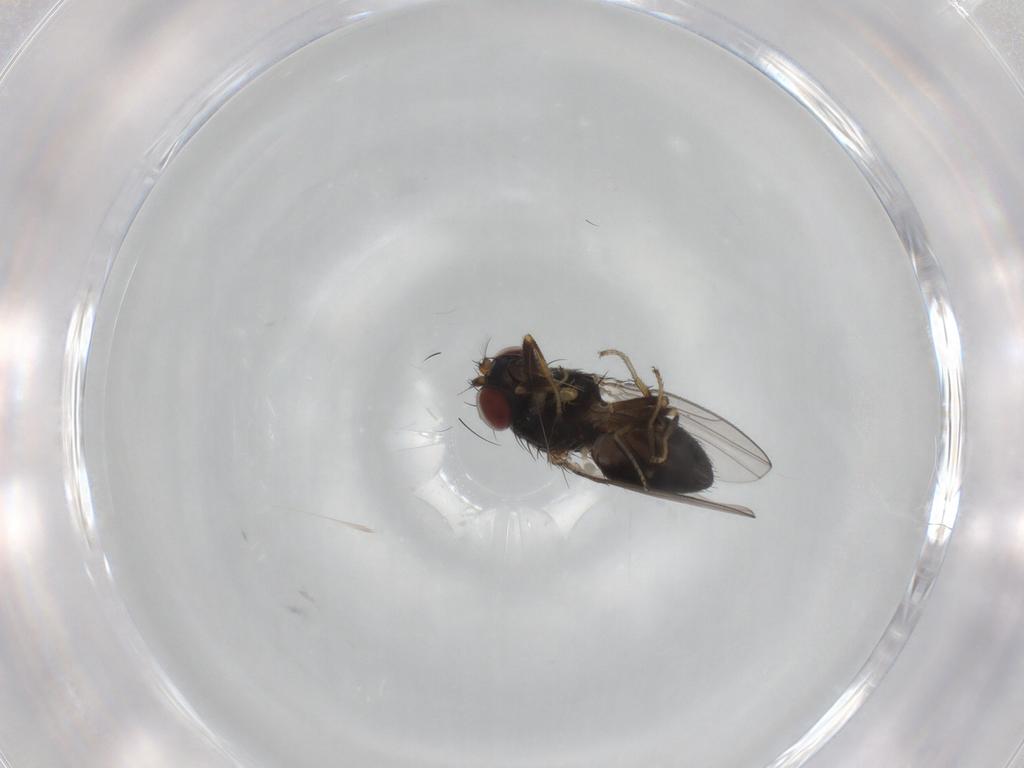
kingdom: Animalia
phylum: Arthropoda
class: Insecta
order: Diptera
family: Ephydridae
